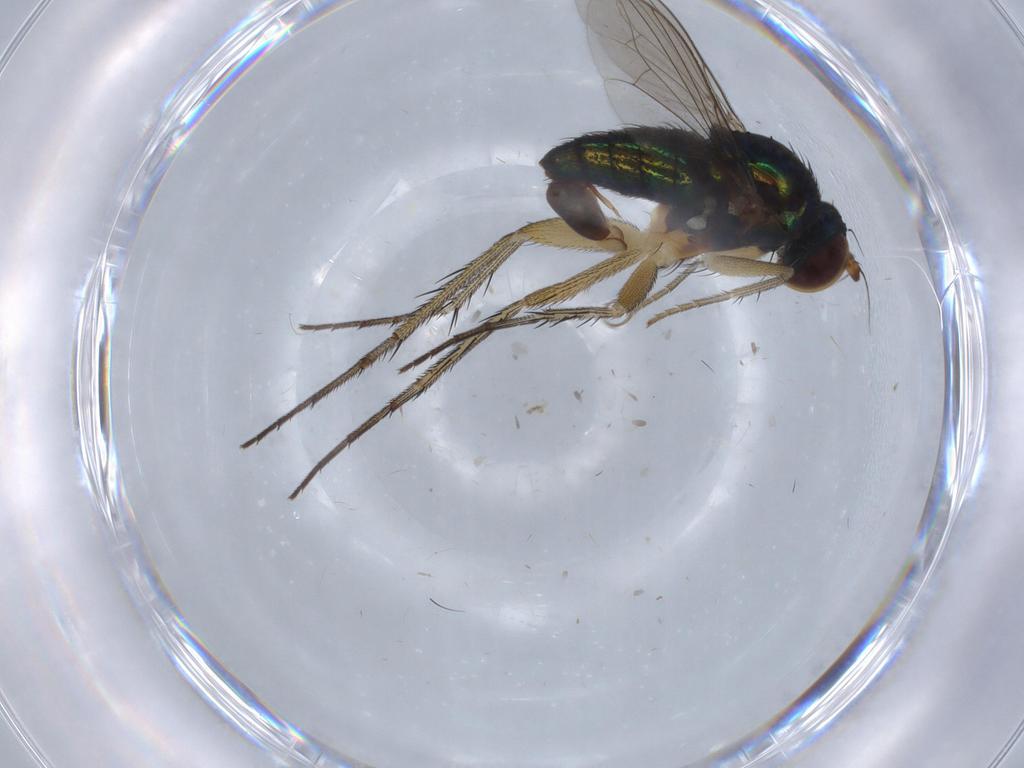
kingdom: Animalia
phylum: Arthropoda
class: Insecta
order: Diptera
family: Dolichopodidae
